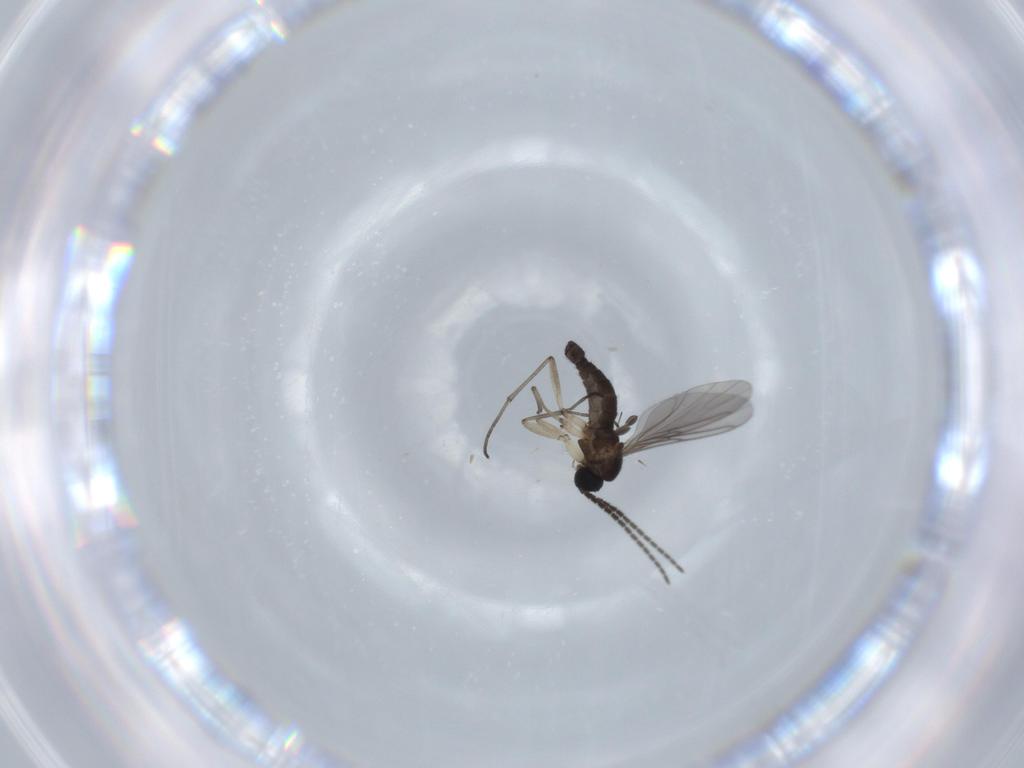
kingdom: Animalia
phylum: Arthropoda
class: Insecta
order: Diptera
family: Sciaridae
